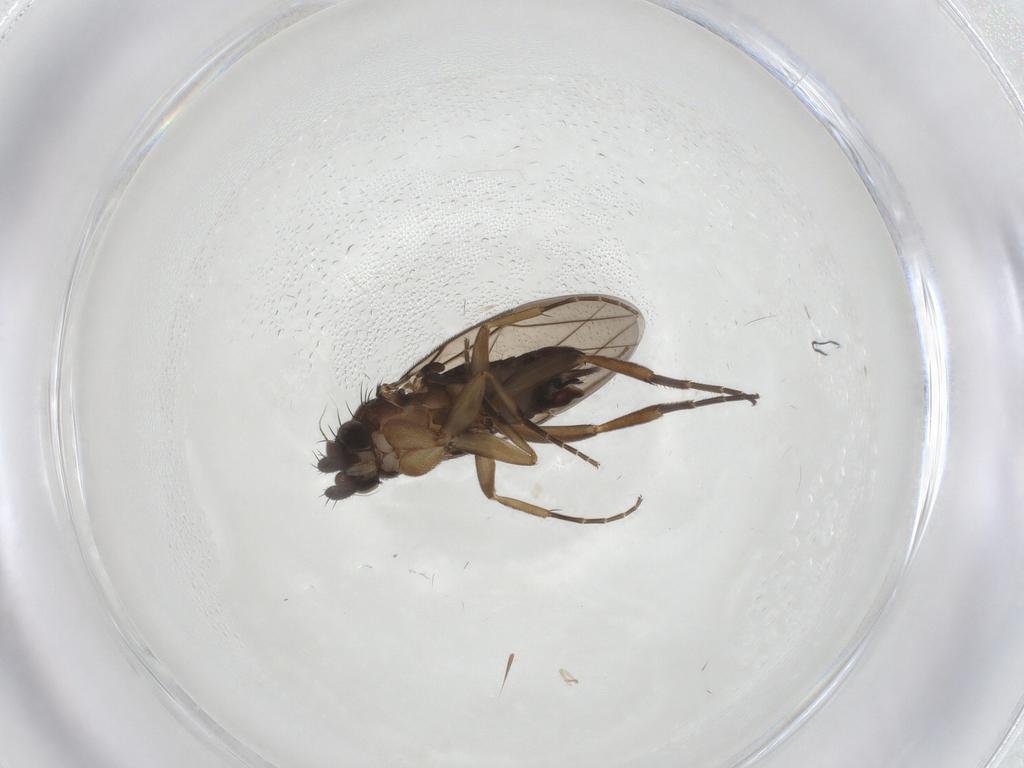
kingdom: Animalia
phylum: Arthropoda
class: Insecta
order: Diptera
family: Phoridae
